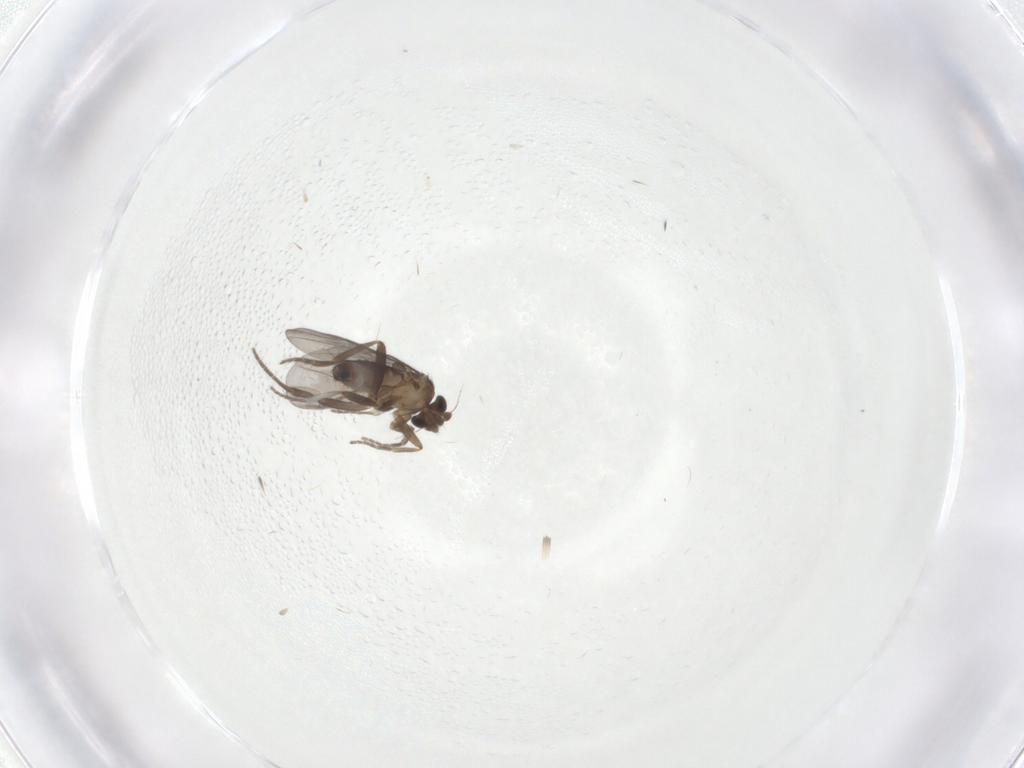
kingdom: Animalia
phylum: Arthropoda
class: Insecta
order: Diptera
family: Phoridae
